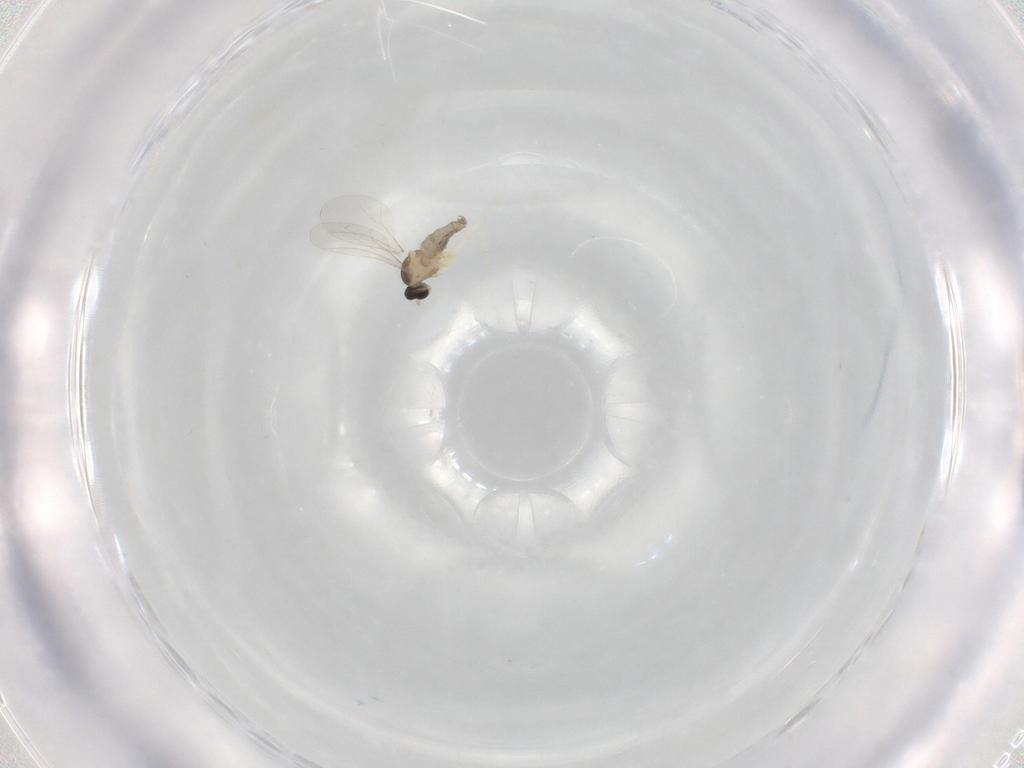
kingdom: Animalia
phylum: Arthropoda
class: Insecta
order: Diptera
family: Cecidomyiidae
